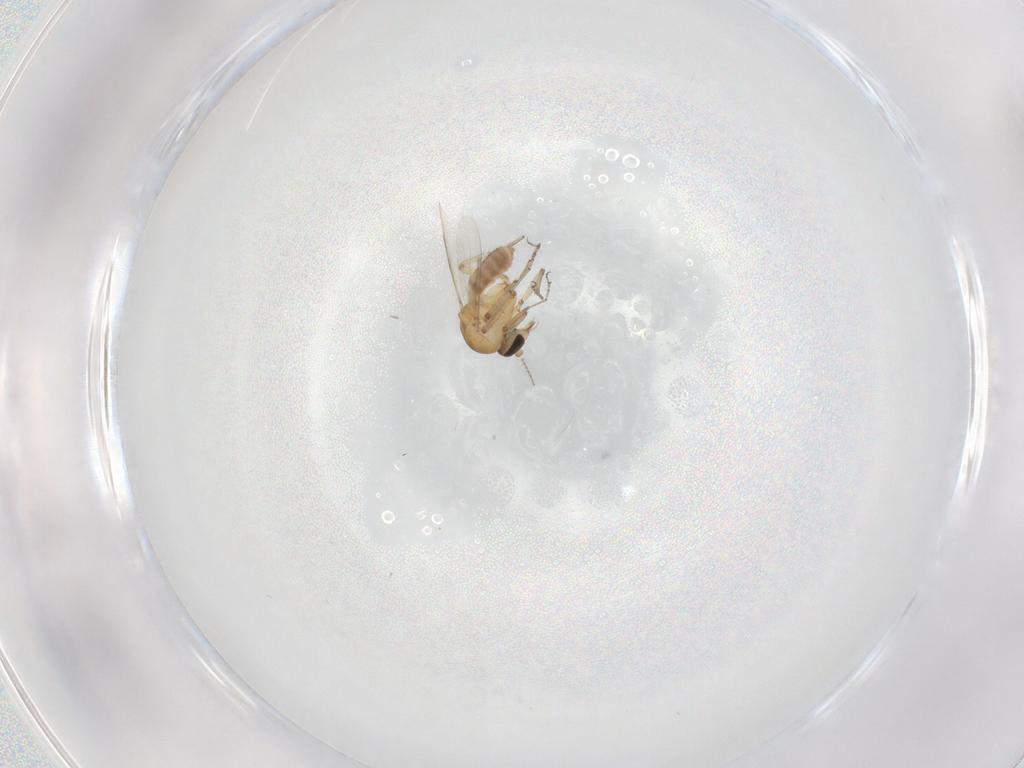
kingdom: Animalia
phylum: Arthropoda
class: Insecta
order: Diptera
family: Ceratopogonidae
